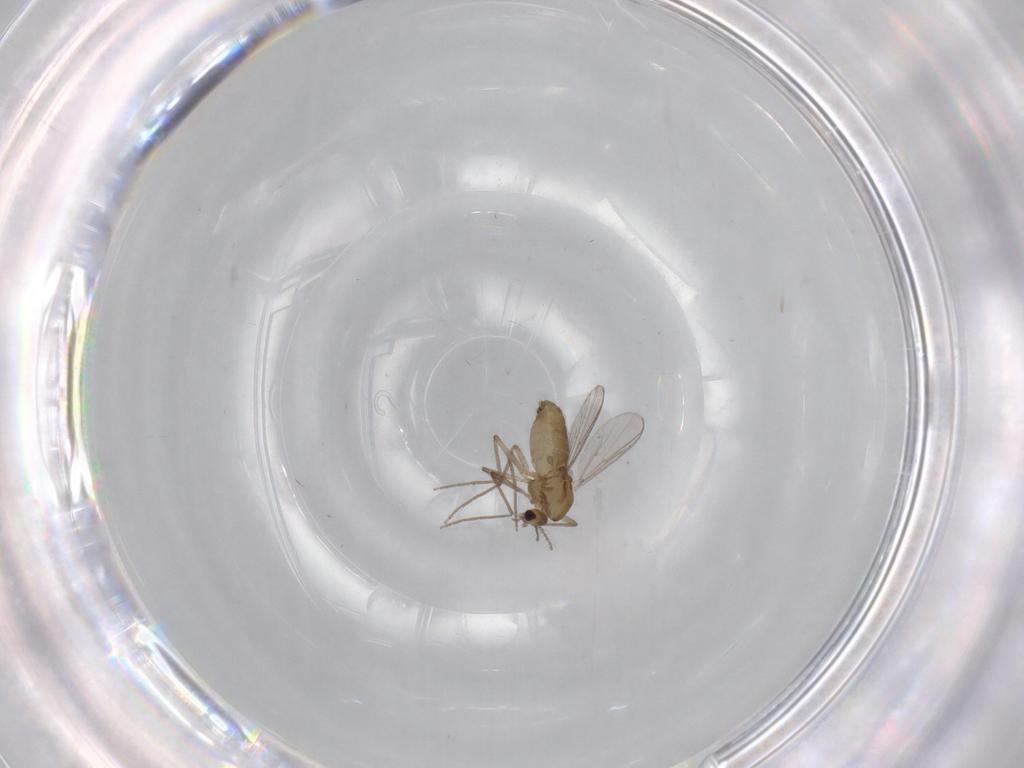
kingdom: Animalia
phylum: Arthropoda
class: Insecta
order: Diptera
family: Chironomidae
